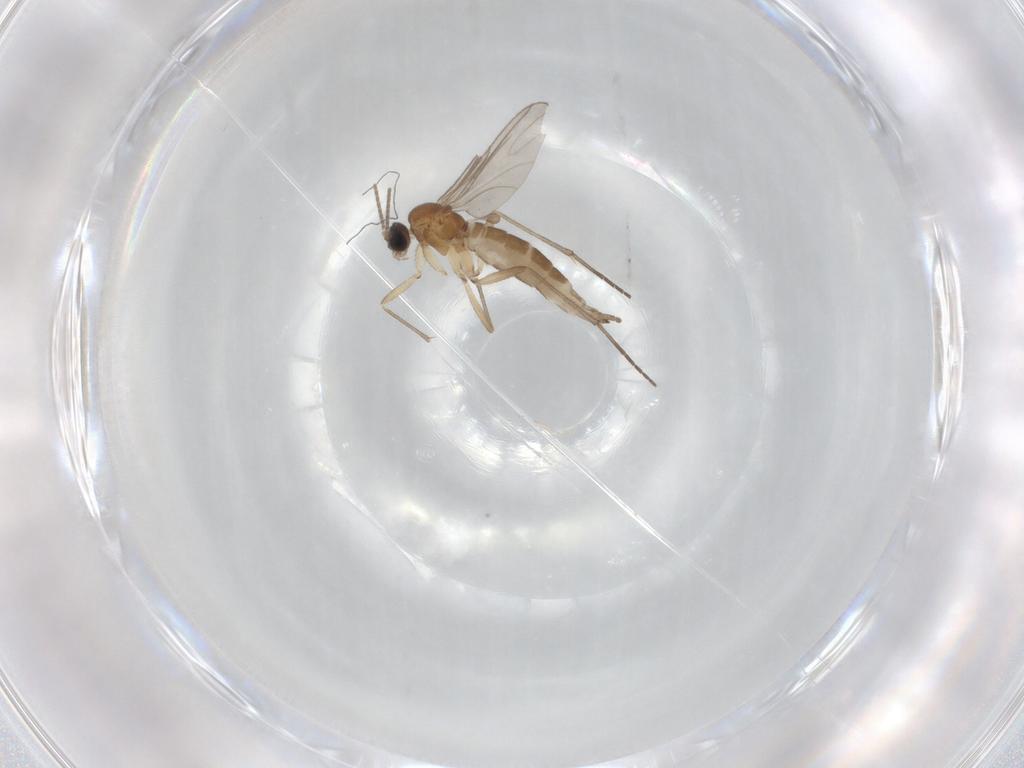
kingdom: Animalia
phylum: Arthropoda
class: Insecta
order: Diptera
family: Sciaridae
